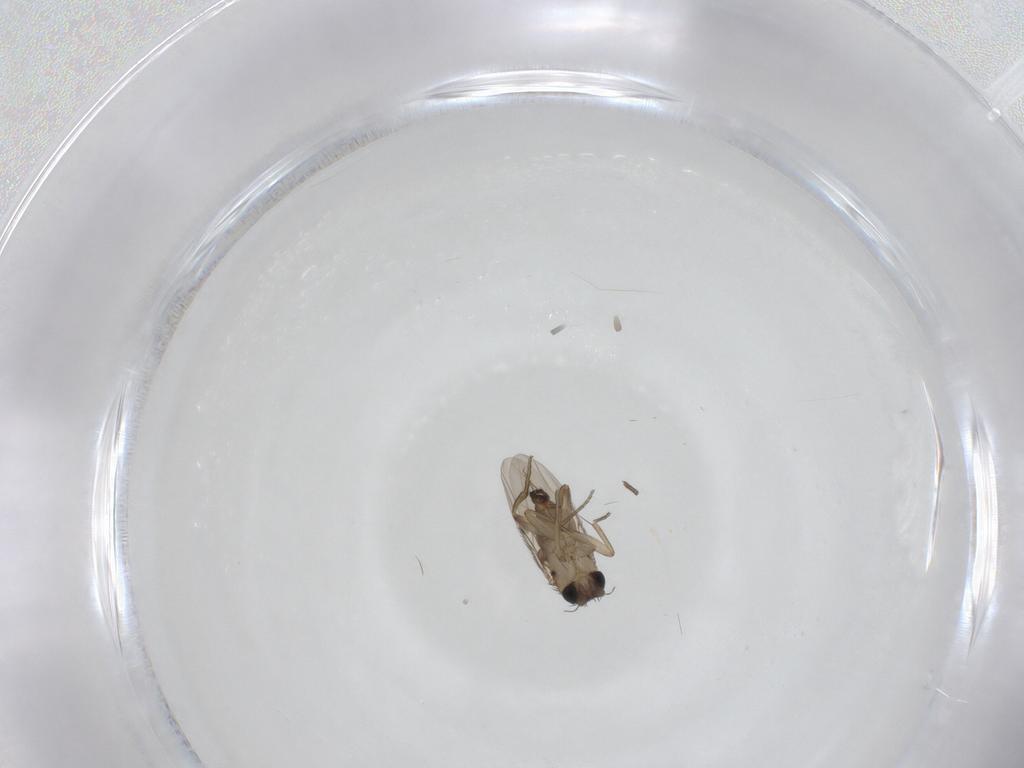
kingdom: Animalia
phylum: Arthropoda
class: Insecta
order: Diptera
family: Phoridae
